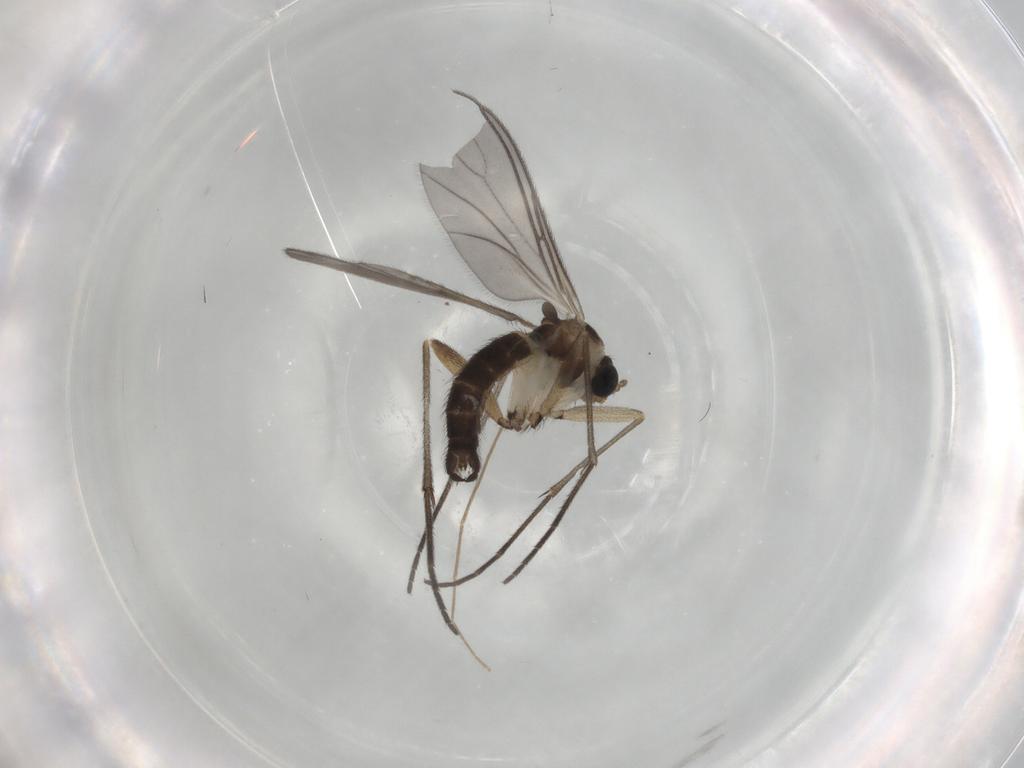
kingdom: Animalia
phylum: Arthropoda
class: Insecta
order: Diptera
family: Sciaridae
